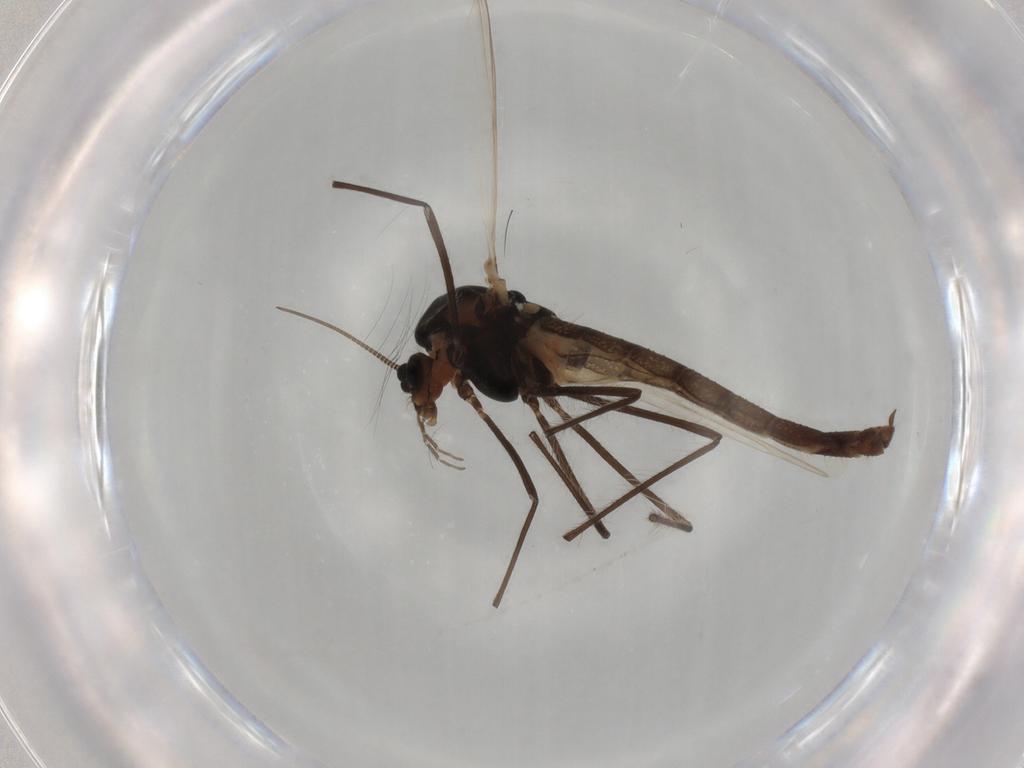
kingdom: Animalia
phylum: Arthropoda
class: Insecta
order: Diptera
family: Chironomidae
